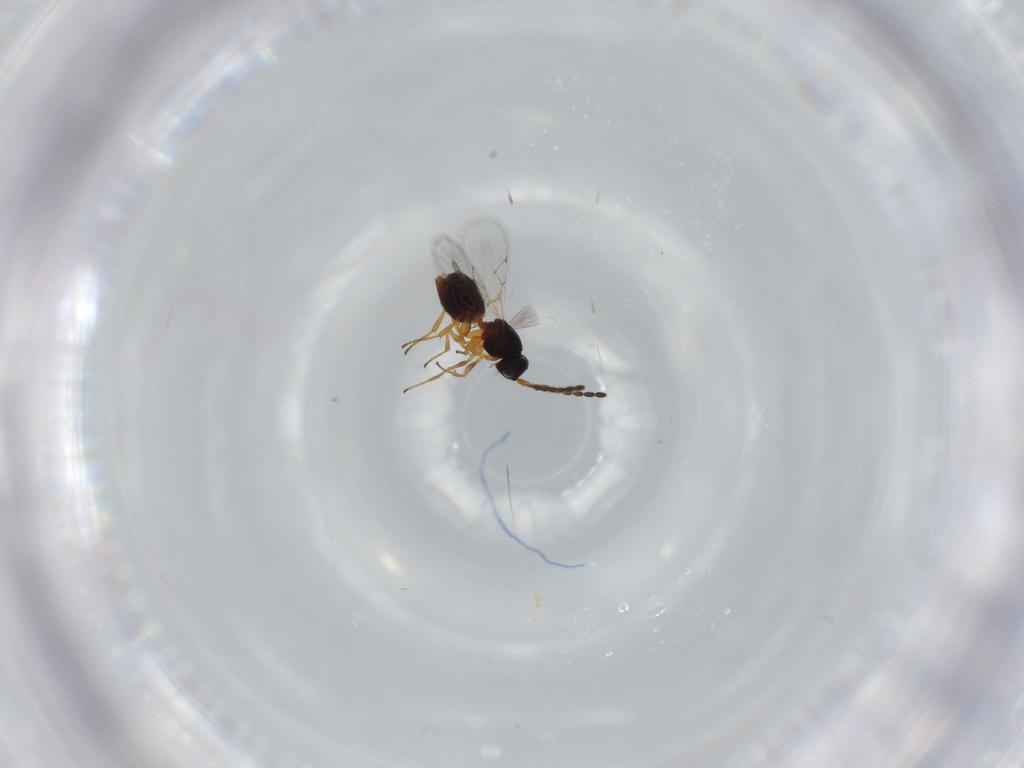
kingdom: Animalia
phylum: Arthropoda
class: Insecta
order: Hymenoptera
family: Figitidae
